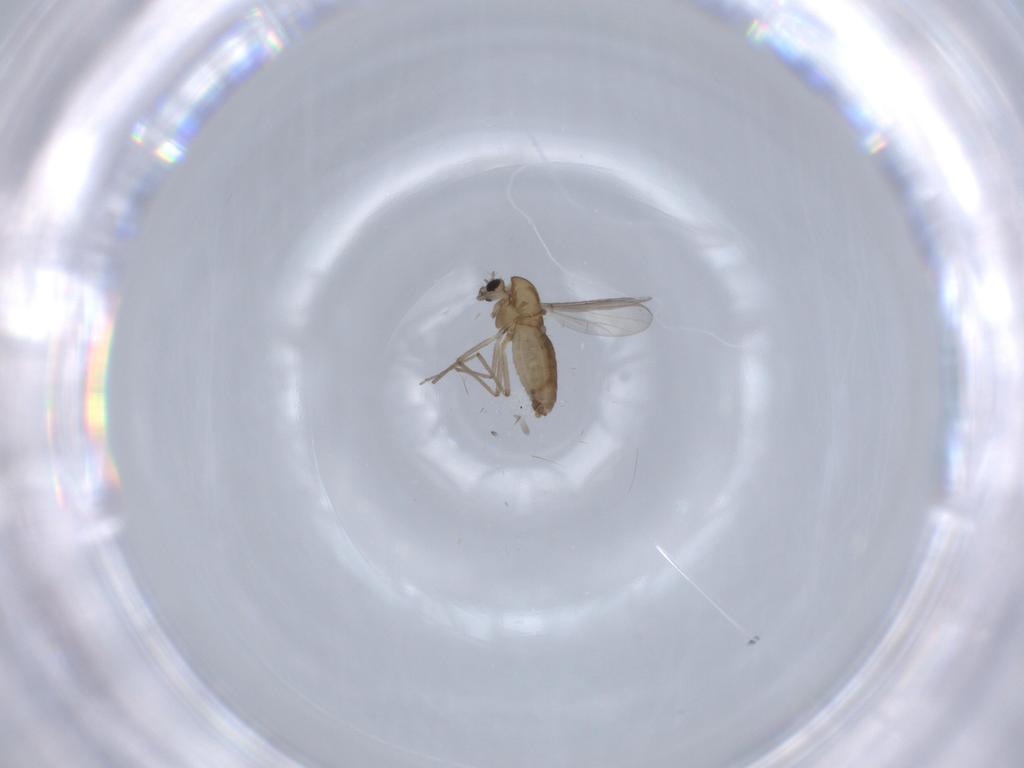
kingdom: Animalia
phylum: Arthropoda
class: Insecta
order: Diptera
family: Chironomidae
